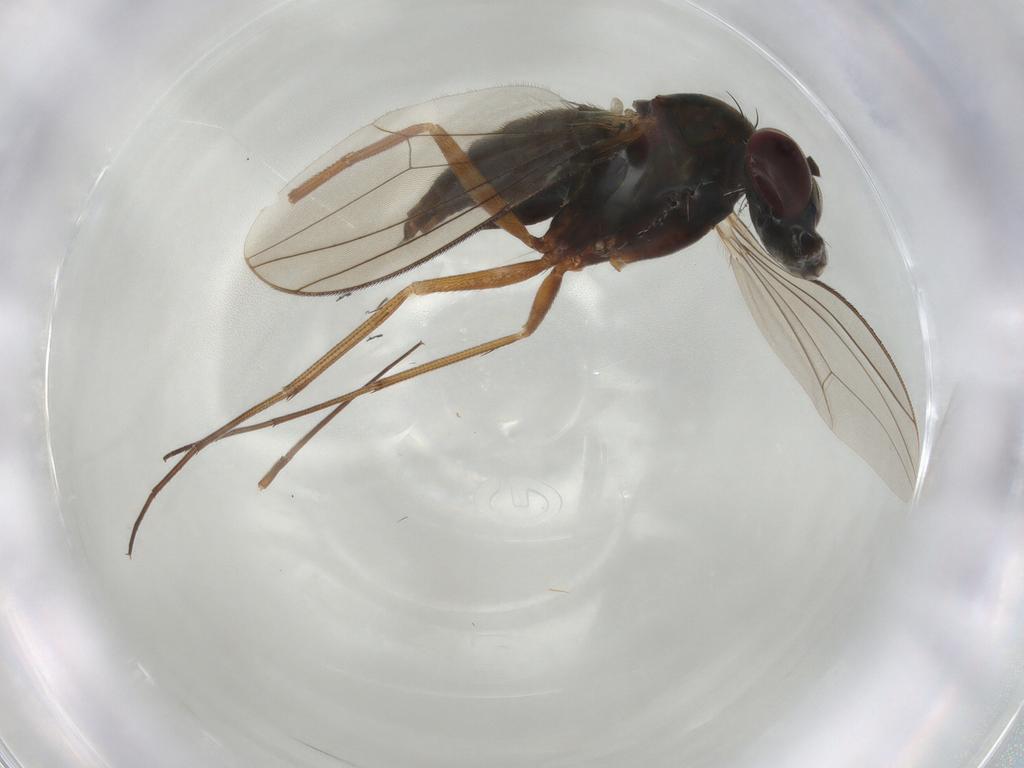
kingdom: Animalia
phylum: Arthropoda
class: Insecta
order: Diptera
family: Dolichopodidae
